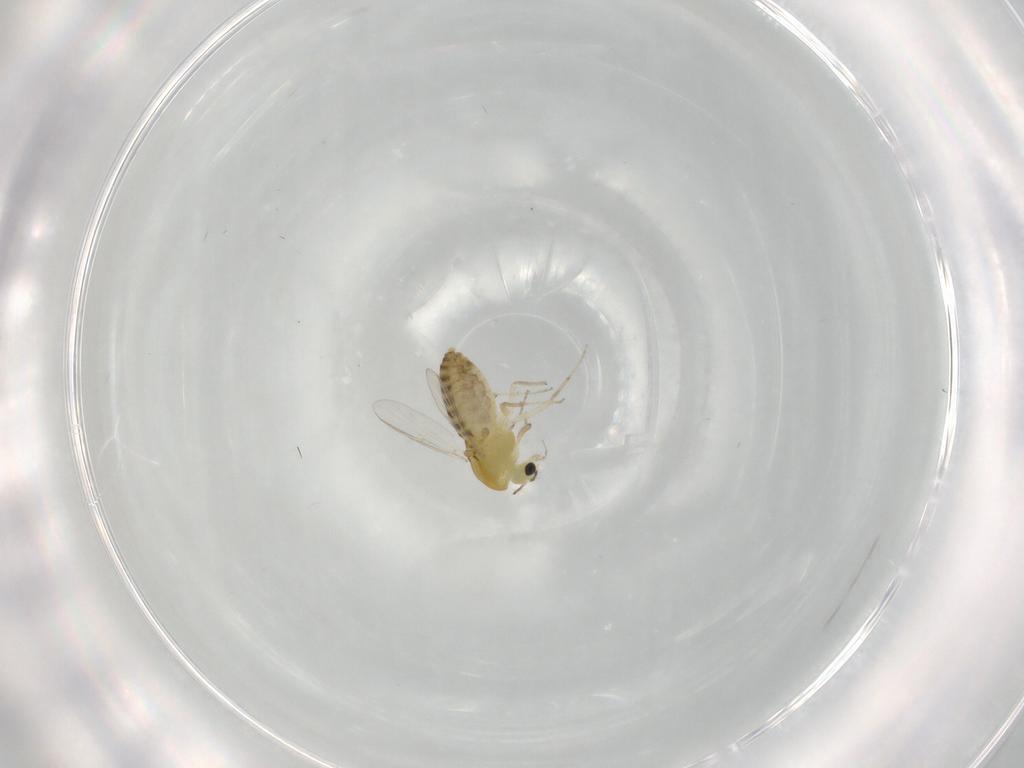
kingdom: Animalia
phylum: Arthropoda
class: Insecta
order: Diptera
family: Chironomidae
